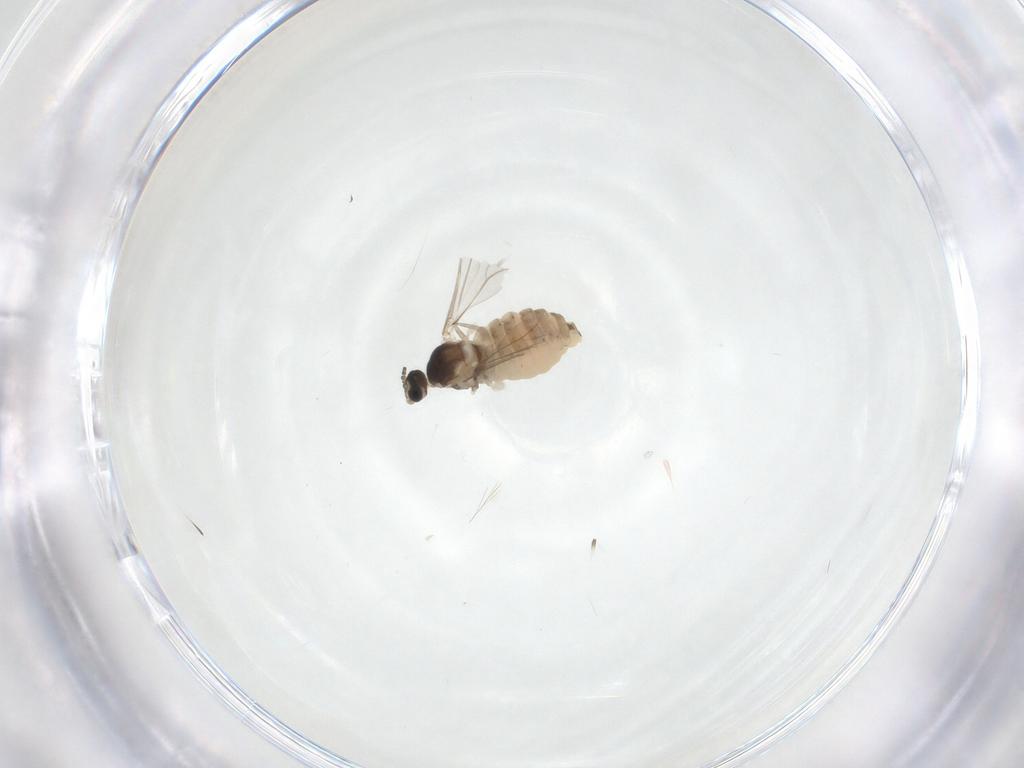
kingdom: Animalia
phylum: Arthropoda
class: Insecta
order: Diptera
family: Cecidomyiidae
